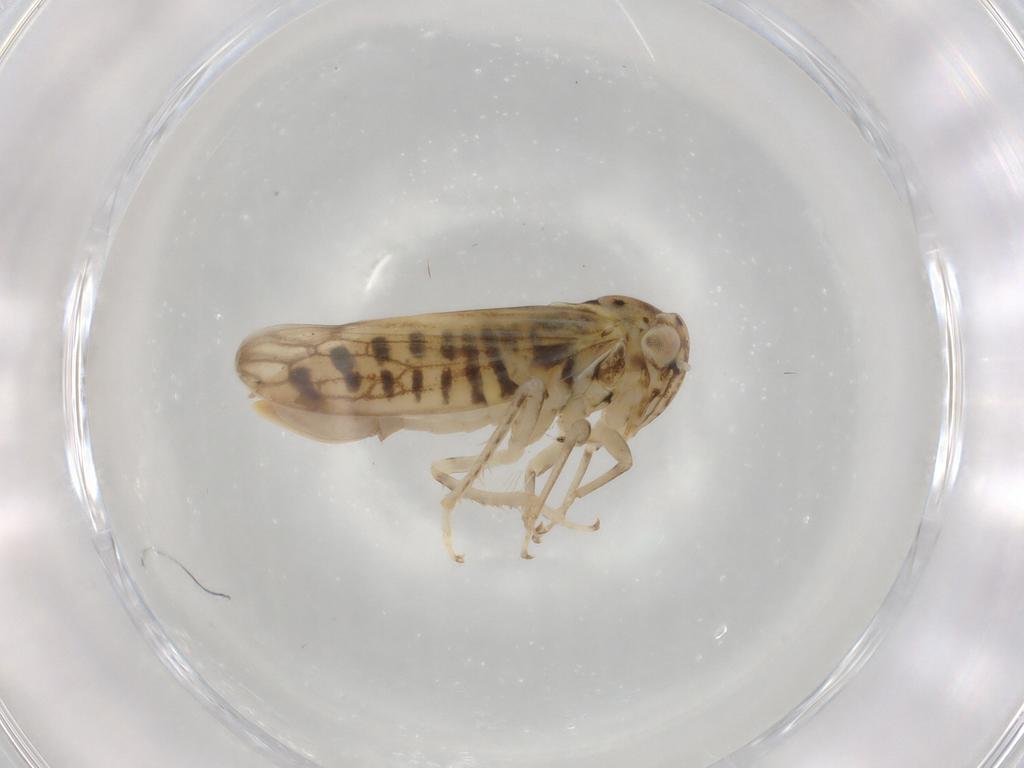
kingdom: Animalia
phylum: Arthropoda
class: Insecta
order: Hemiptera
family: Cicadellidae
